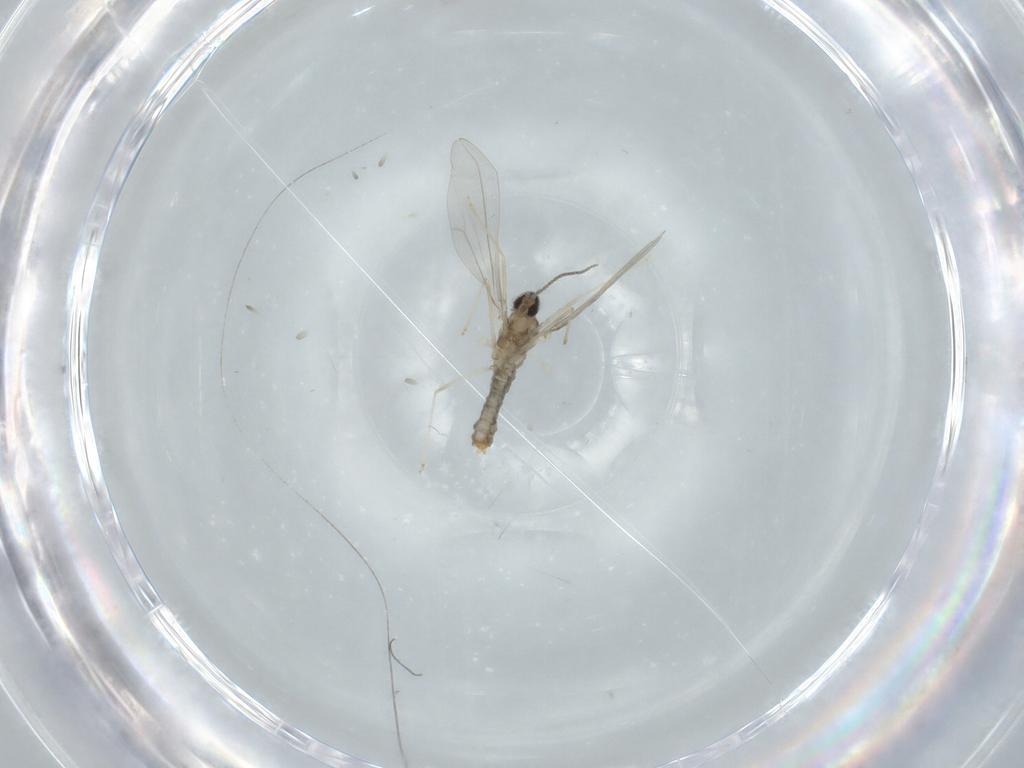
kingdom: Animalia
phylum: Arthropoda
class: Insecta
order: Diptera
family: Cecidomyiidae
